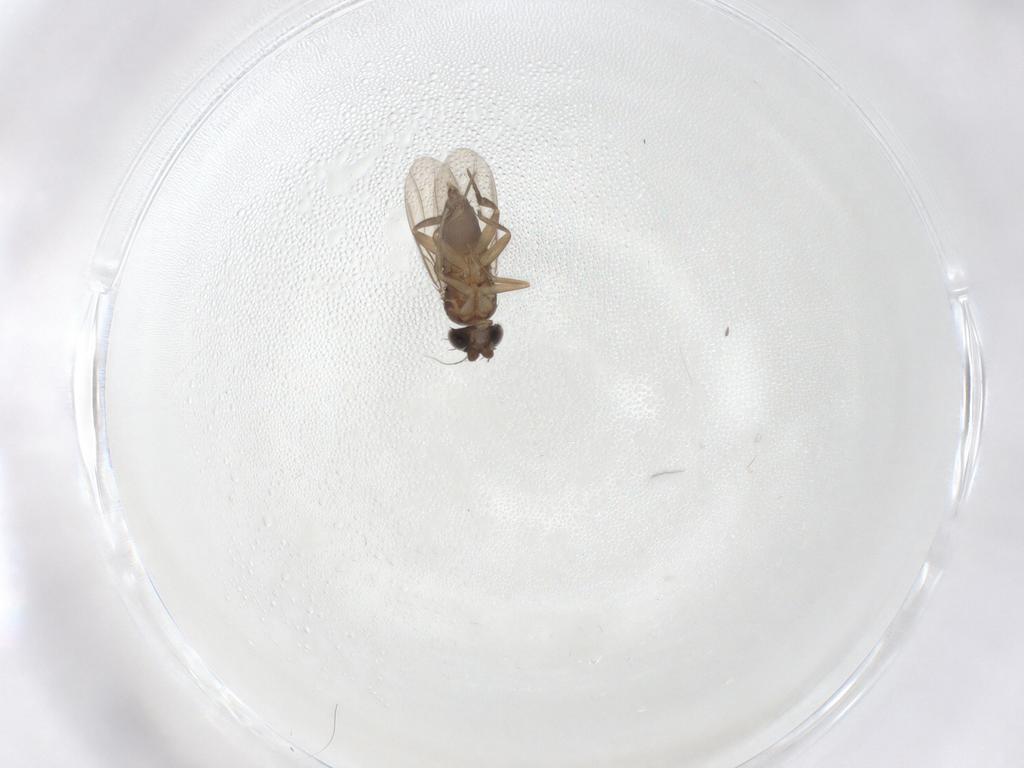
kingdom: Animalia
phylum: Arthropoda
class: Insecta
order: Diptera
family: Phoridae
